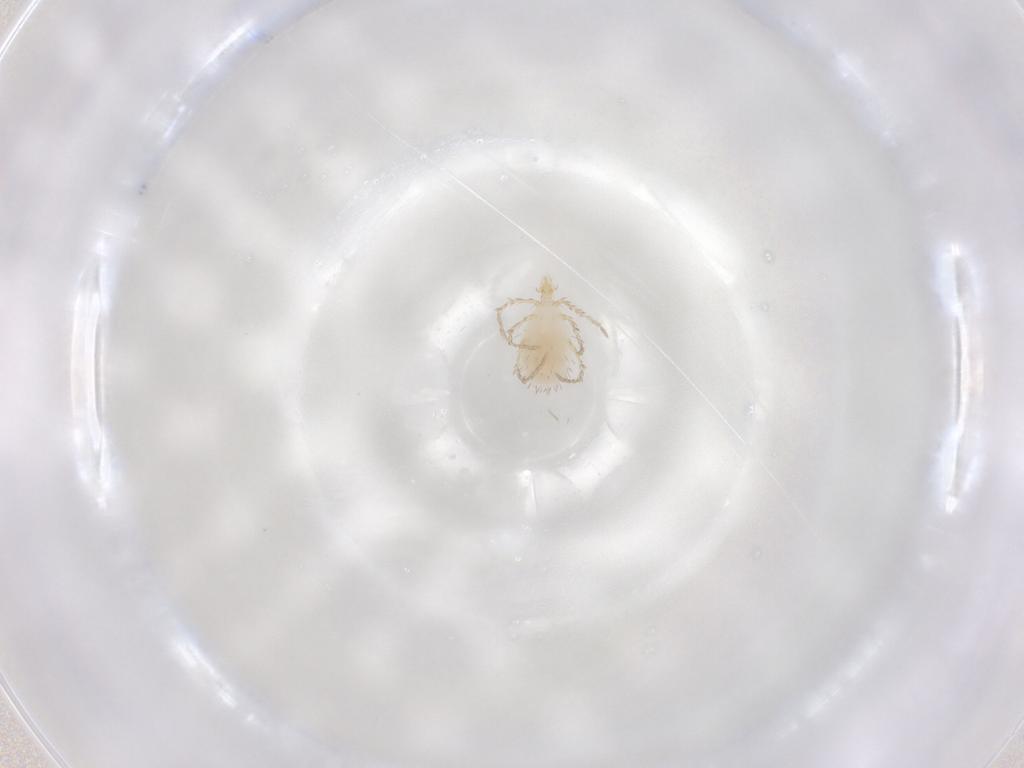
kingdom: Animalia
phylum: Arthropoda
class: Arachnida
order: Trombidiformes
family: Erythraeidae
